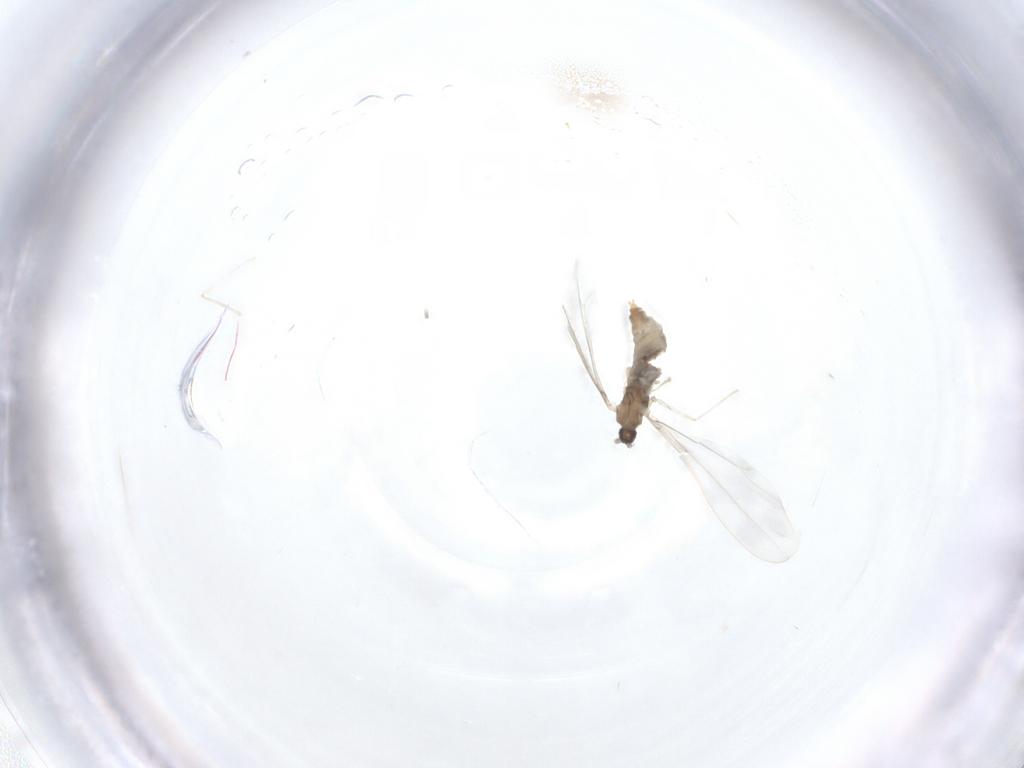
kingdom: Animalia
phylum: Arthropoda
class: Insecta
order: Diptera
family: Cecidomyiidae
